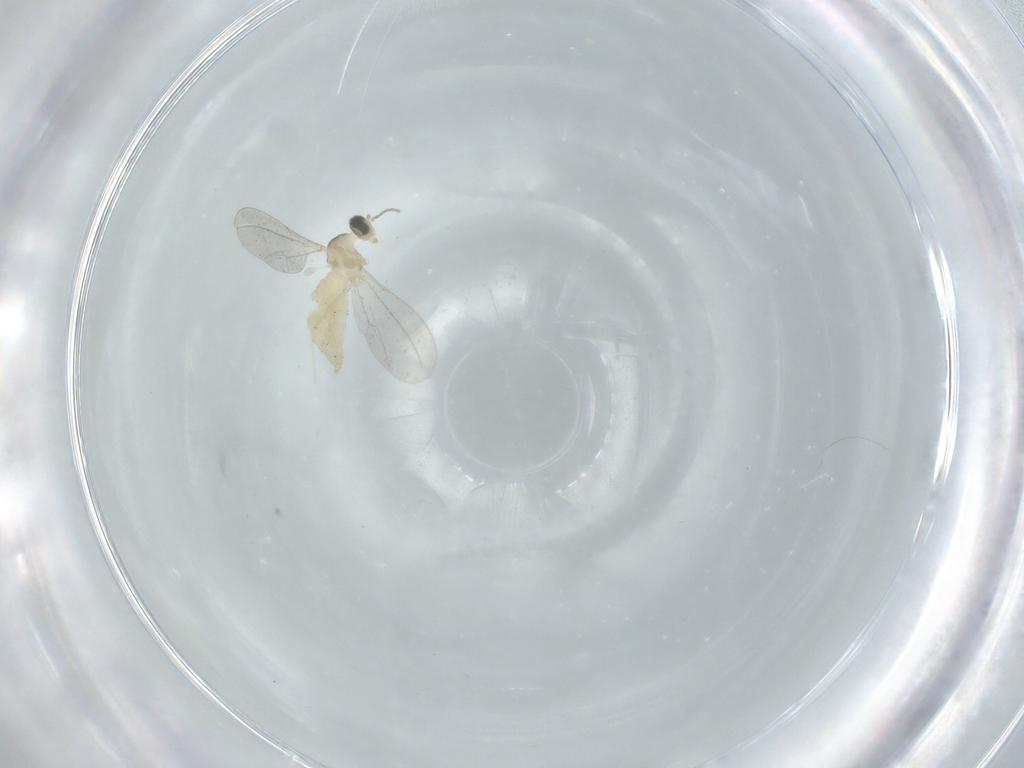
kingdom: Animalia
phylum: Arthropoda
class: Insecta
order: Diptera
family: Cecidomyiidae
